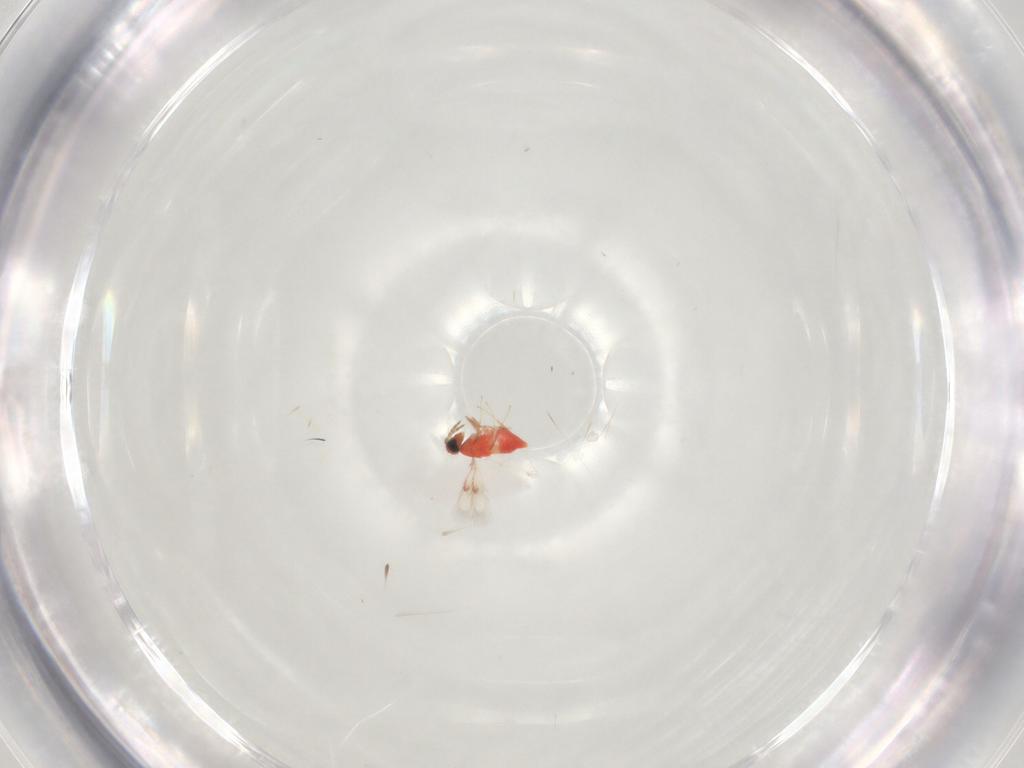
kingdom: Animalia
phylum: Arthropoda
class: Insecta
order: Hymenoptera
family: Trichogrammatidae
